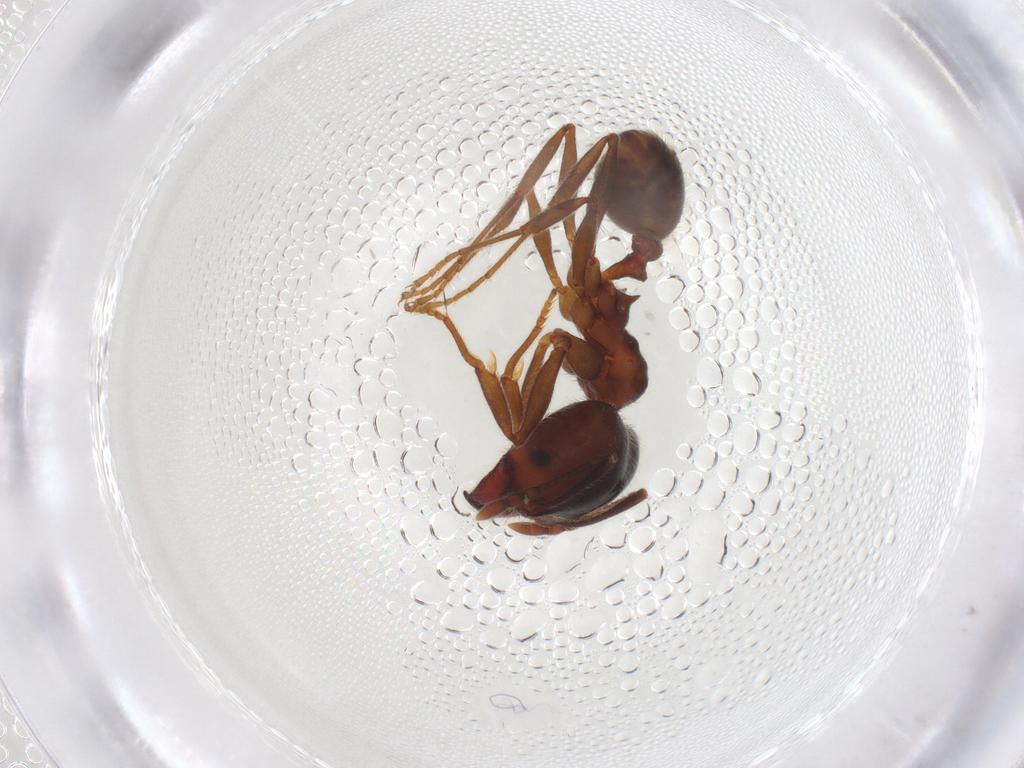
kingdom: Animalia
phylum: Arthropoda
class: Insecta
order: Hymenoptera
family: Formicidae
